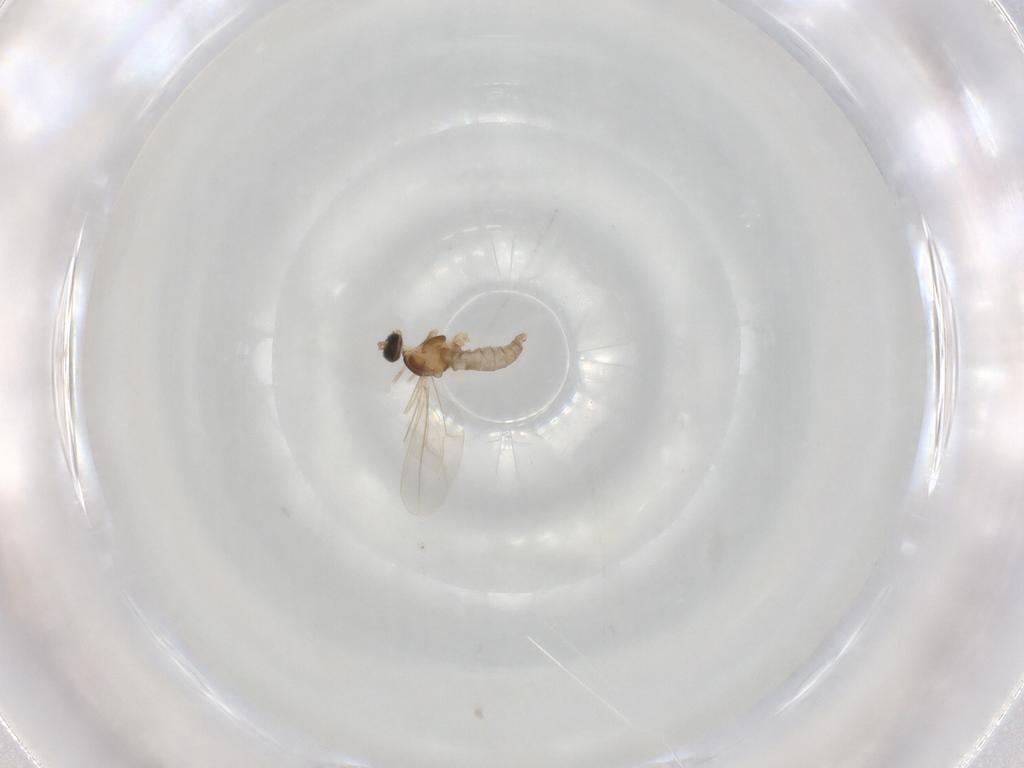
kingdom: Animalia
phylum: Arthropoda
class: Insecta
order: Diptera
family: Cecidomyiidae
